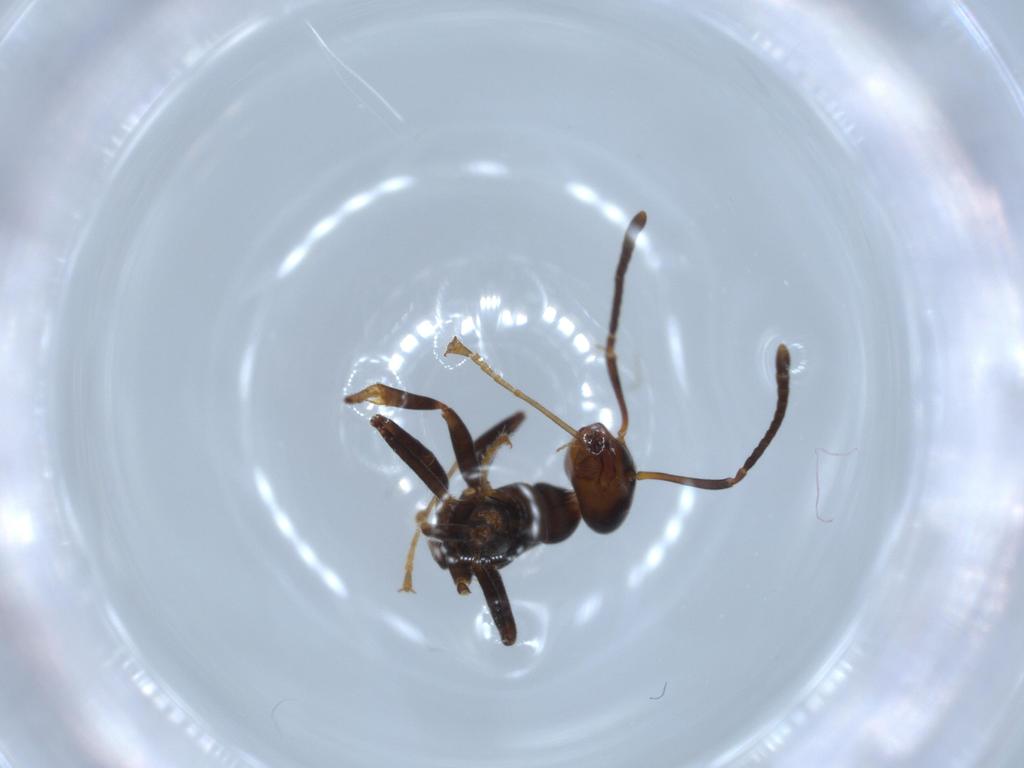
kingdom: Animalia
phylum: Arthropoda
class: Insecta
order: Hymenoptera
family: Formicidae
